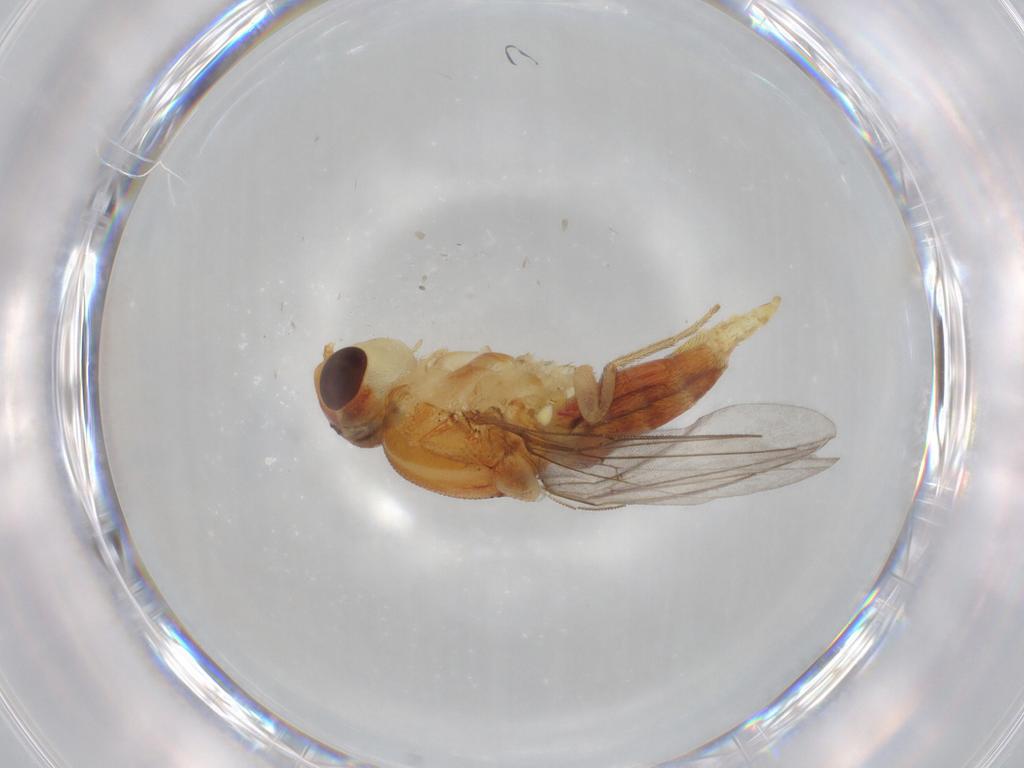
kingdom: Animalia
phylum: Arthropoda
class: Insecta
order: Diptera
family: Chloropidae
